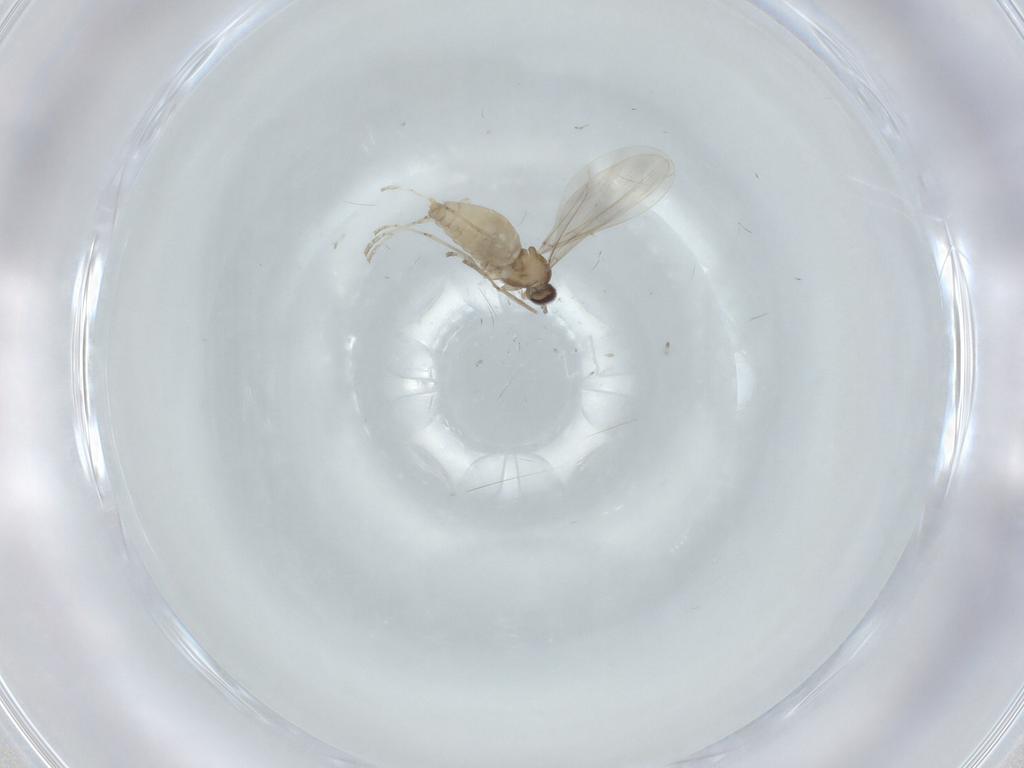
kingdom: Animalia
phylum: Arthropoda
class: Insecta
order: Diptera
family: Cecidomyiidae
